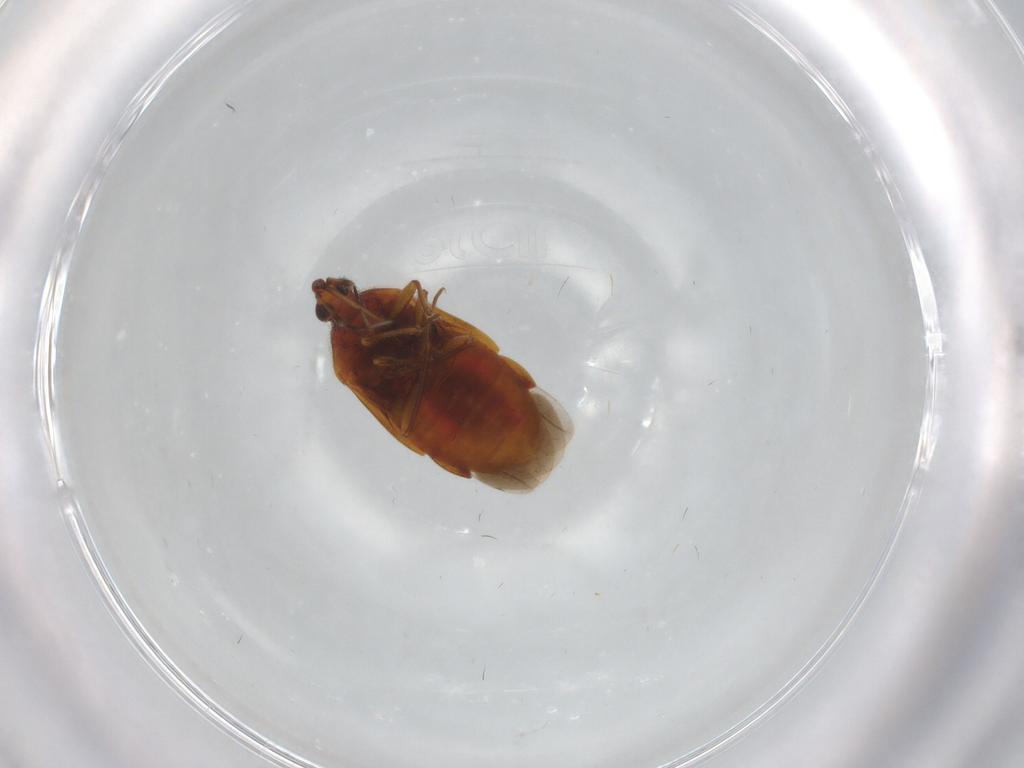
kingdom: Animalia
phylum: Arthropoda
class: Insecta
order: Hemiptera
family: Anthocoridae
